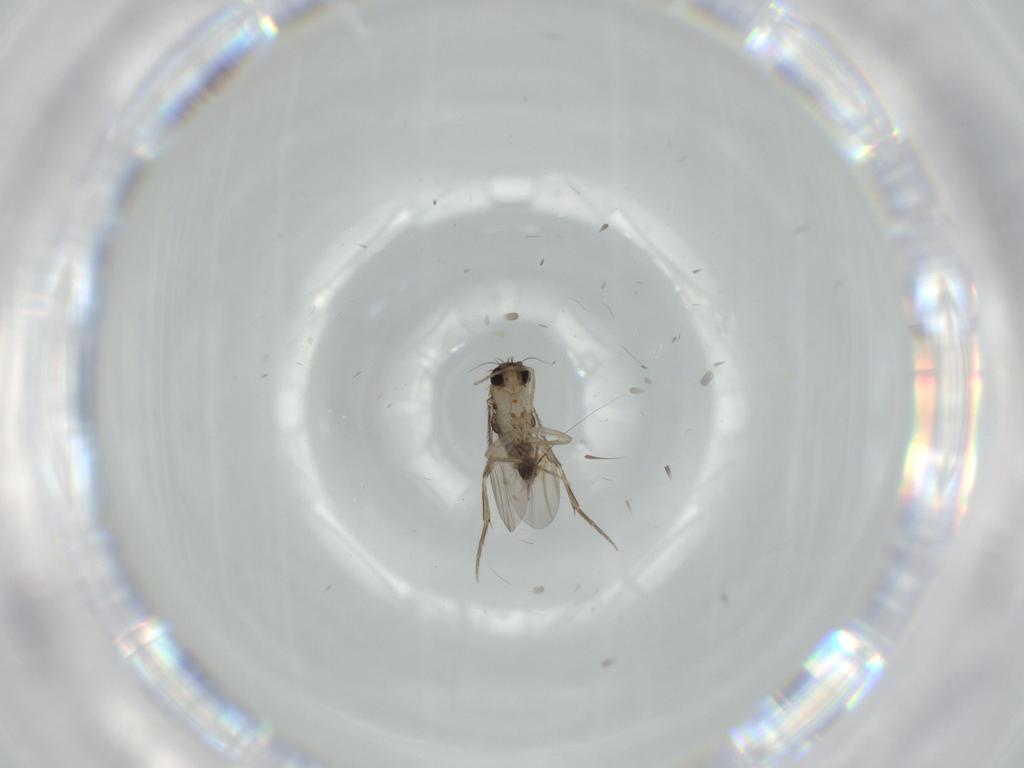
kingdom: Animalia
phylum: Arthropoda
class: Insecta
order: Diptera
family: Phoridae
